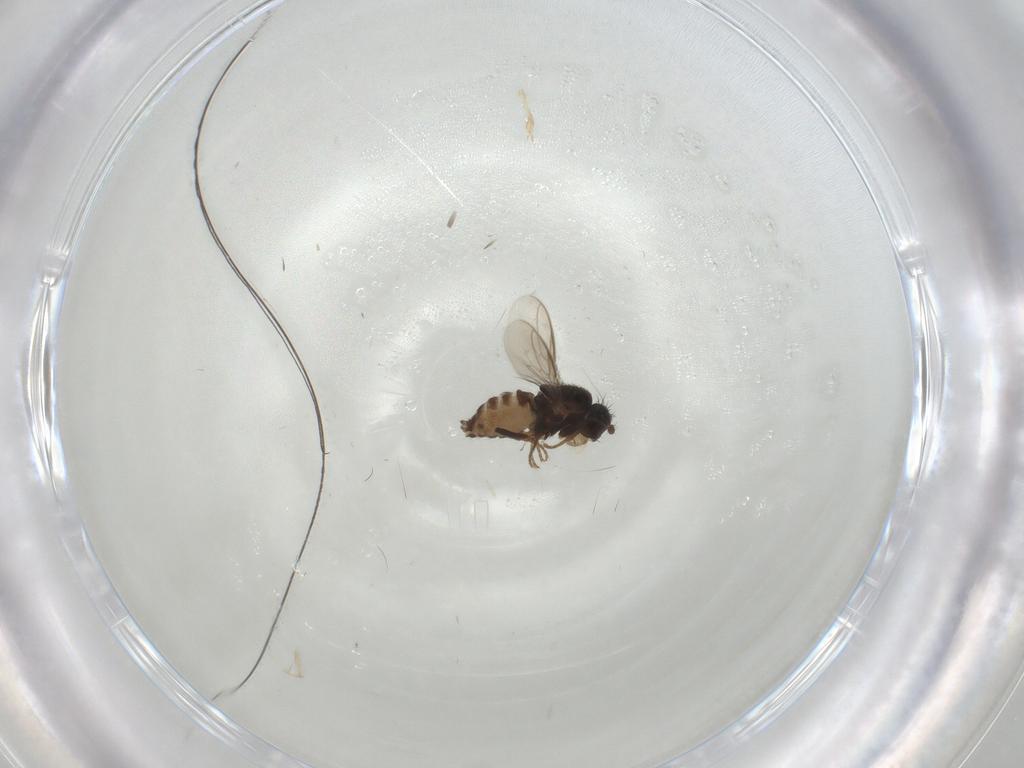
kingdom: Animalia
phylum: Arthropoda
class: Insecta
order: Diptera
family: Sphaeroceridae
